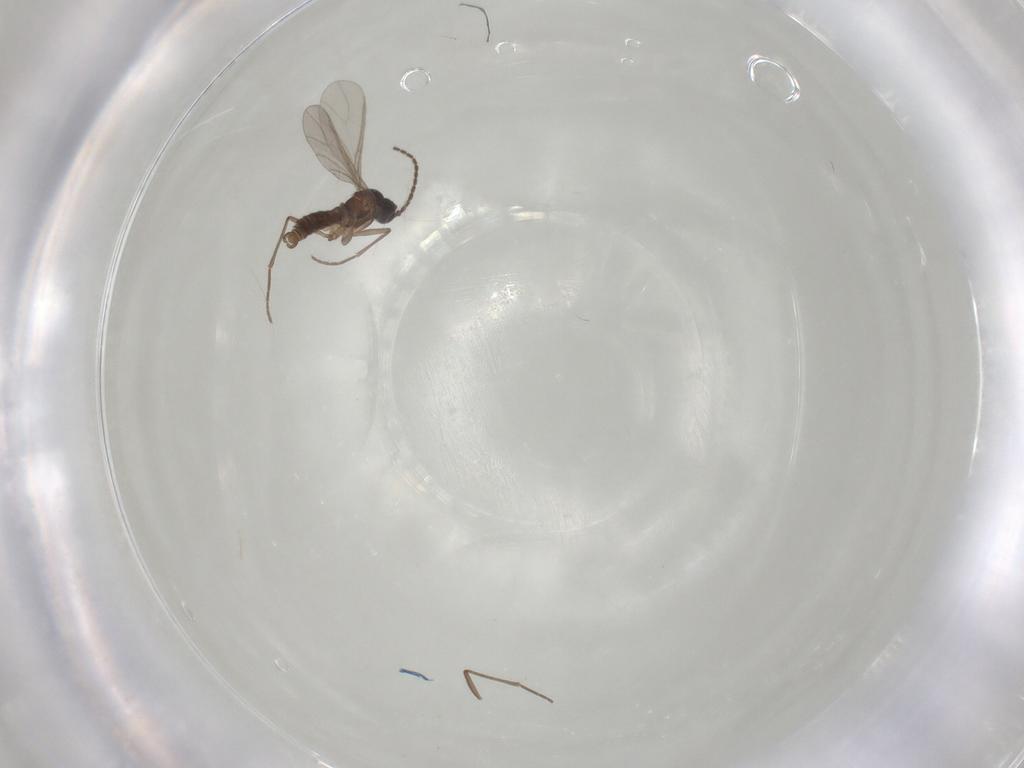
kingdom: Animalia
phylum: Arthropoda
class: Insecta
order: Diptera
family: Sciaridae
